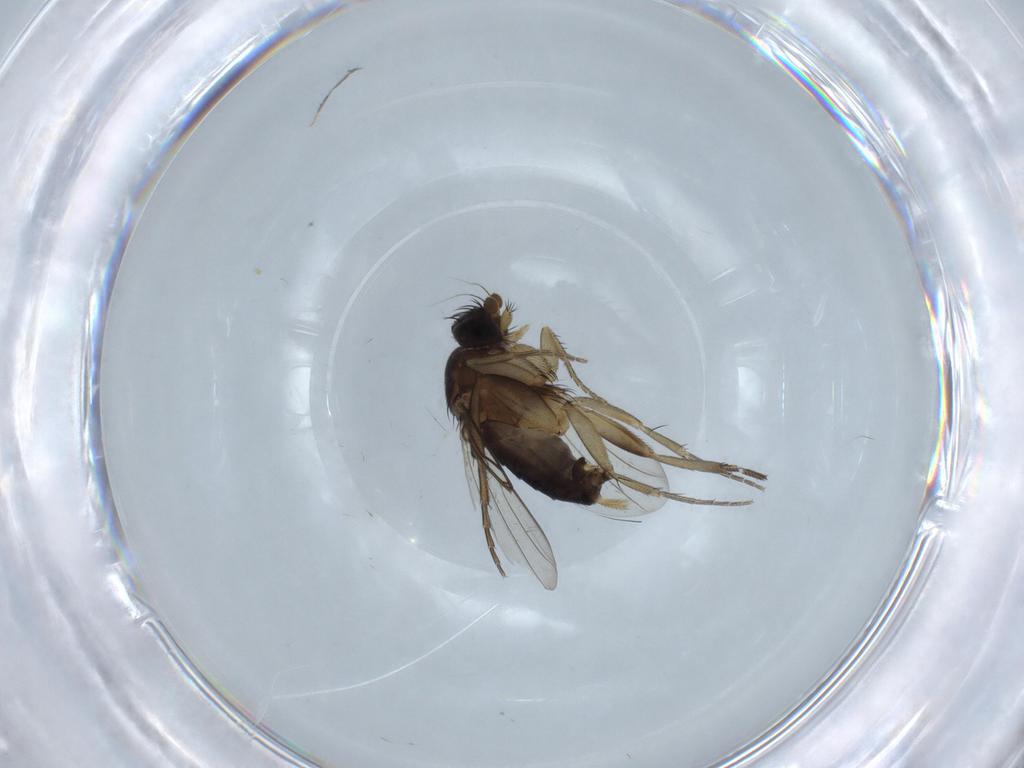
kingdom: Animalia
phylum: Arthropoda
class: Insecta
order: Diptera
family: Phoridae
